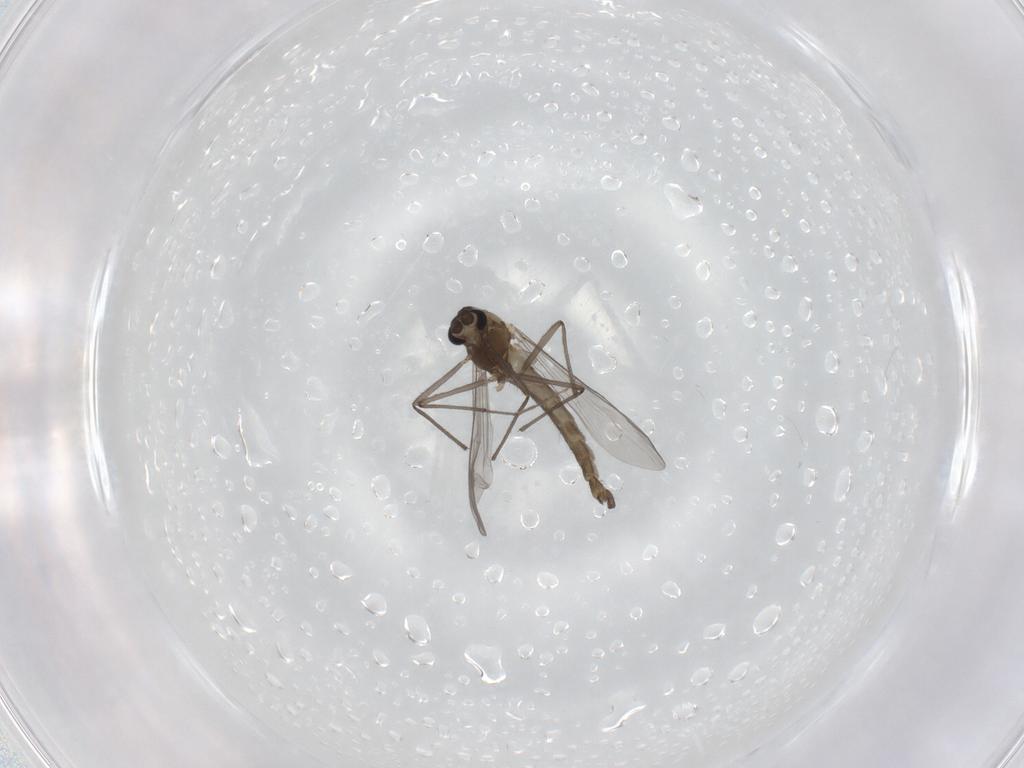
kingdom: Animalia
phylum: Arthropoda
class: Insecta
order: Diptera
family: Chironomidae
